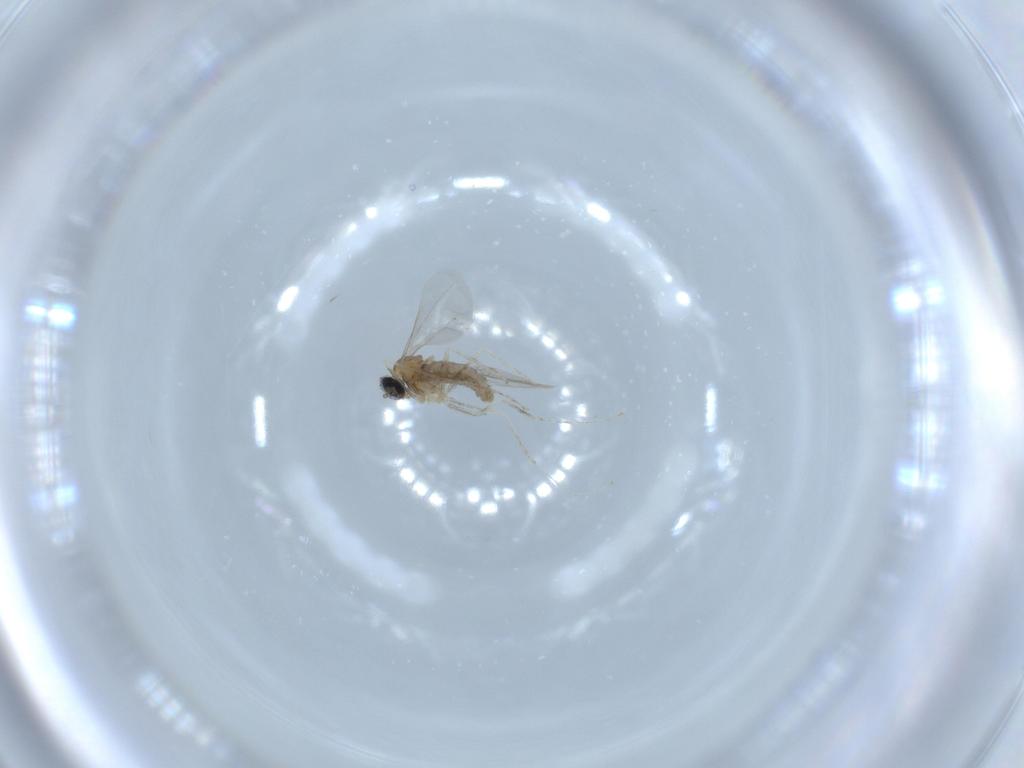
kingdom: Animalia
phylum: Arthropoda
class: Insecta
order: Diptera
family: Cecidomyiidae
